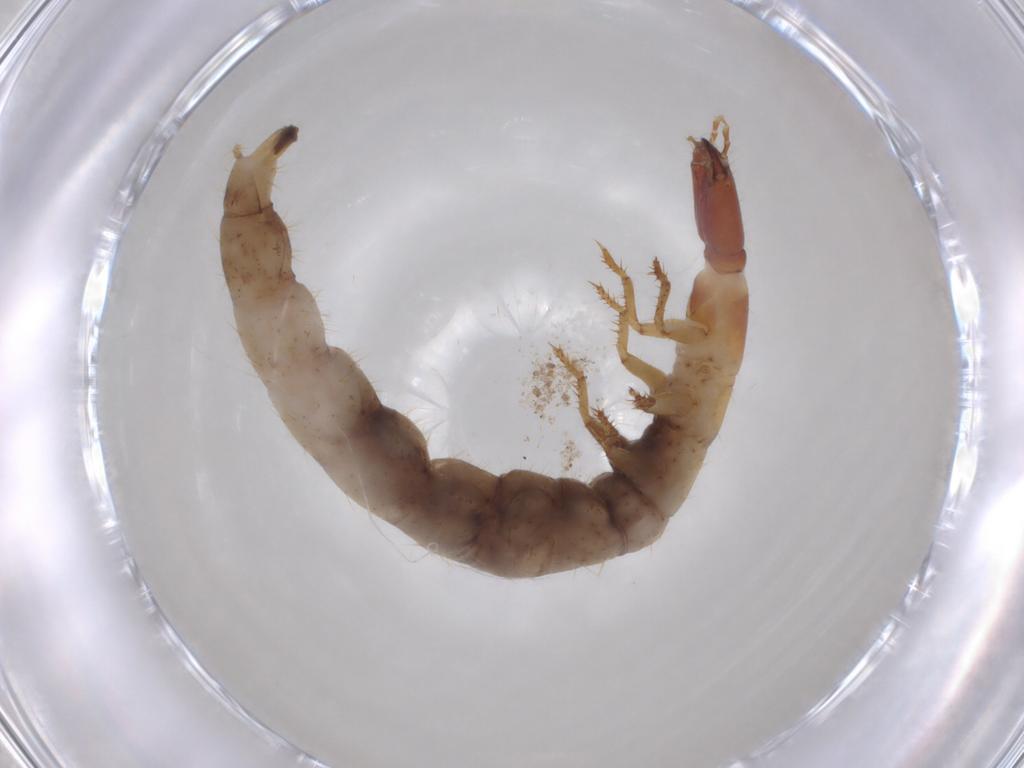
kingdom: Animalia
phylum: Arthropoda
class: Insecta
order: Coleoptera
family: Staphylinidae
